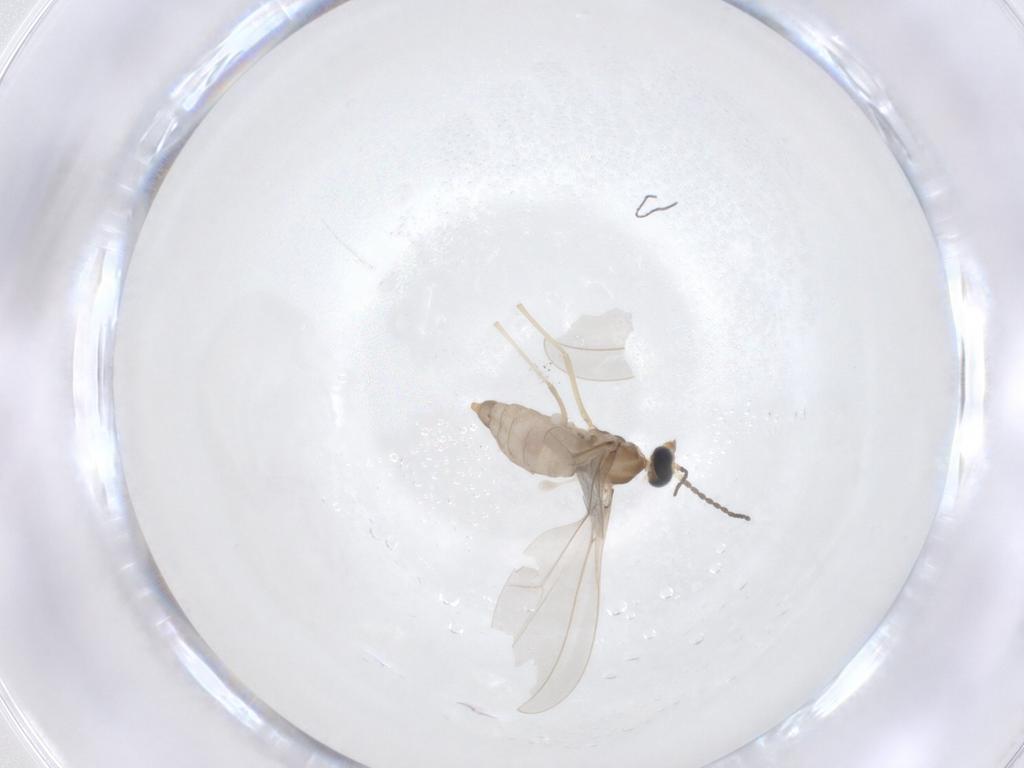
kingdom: Animalia
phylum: Arthropoda
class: Insecta
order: Diptera
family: Cecidomyiidae
